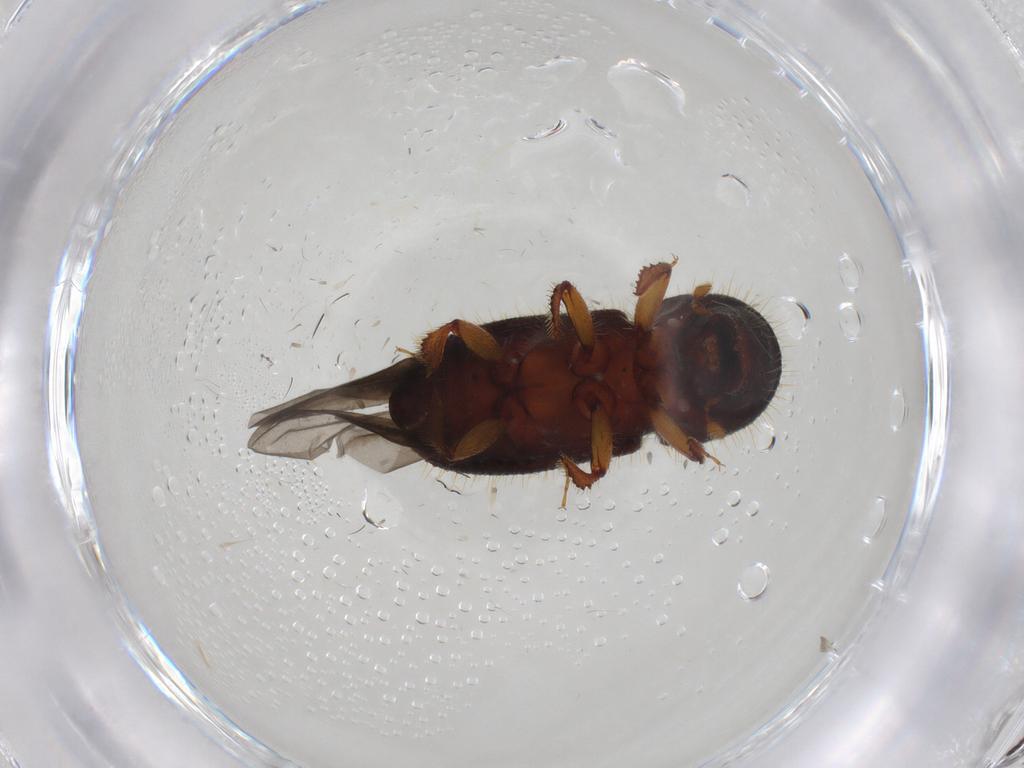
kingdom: Animalia
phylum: Arthropoda
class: Insecta
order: Coleoptera
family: Curculionidae
